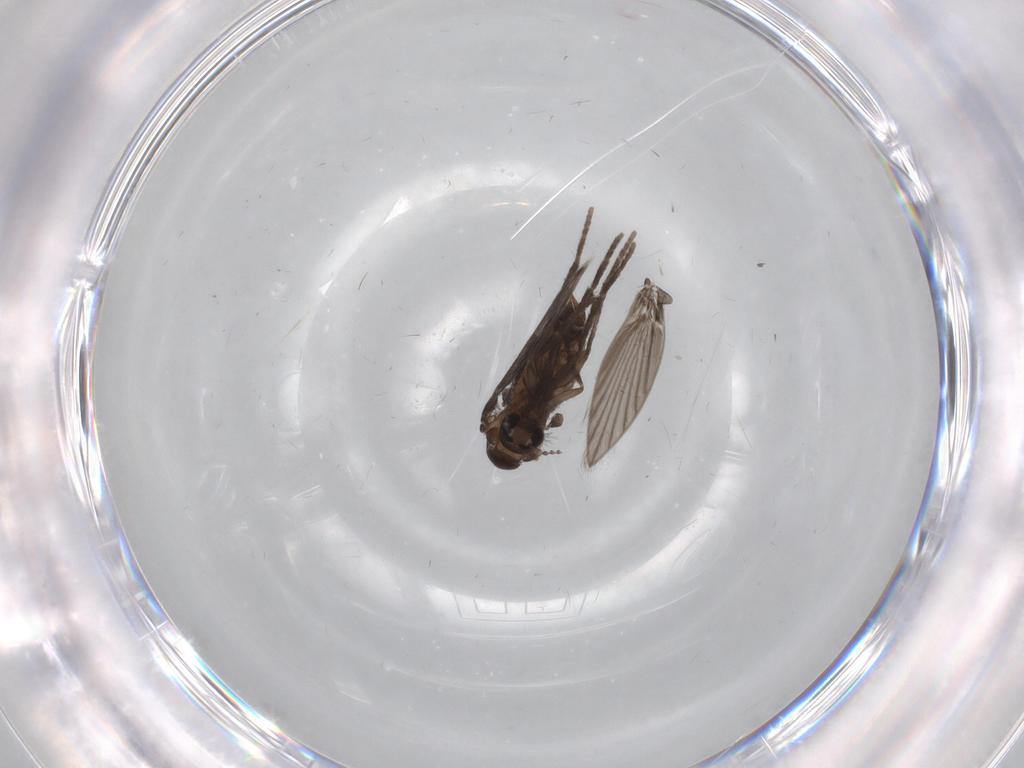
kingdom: Animalia
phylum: Arthropoda
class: Insecta
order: Diptera
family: Psychodidae
